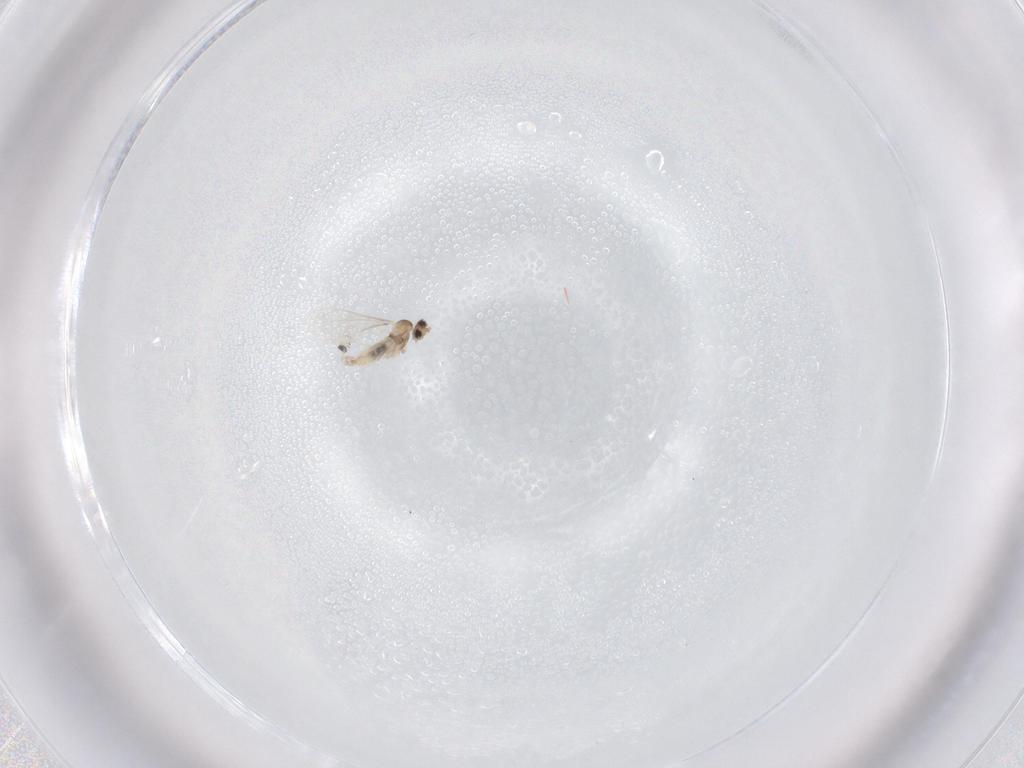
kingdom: Animalia
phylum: Arthropoda
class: Insecta
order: Diptera
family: Cecidomyiidae
